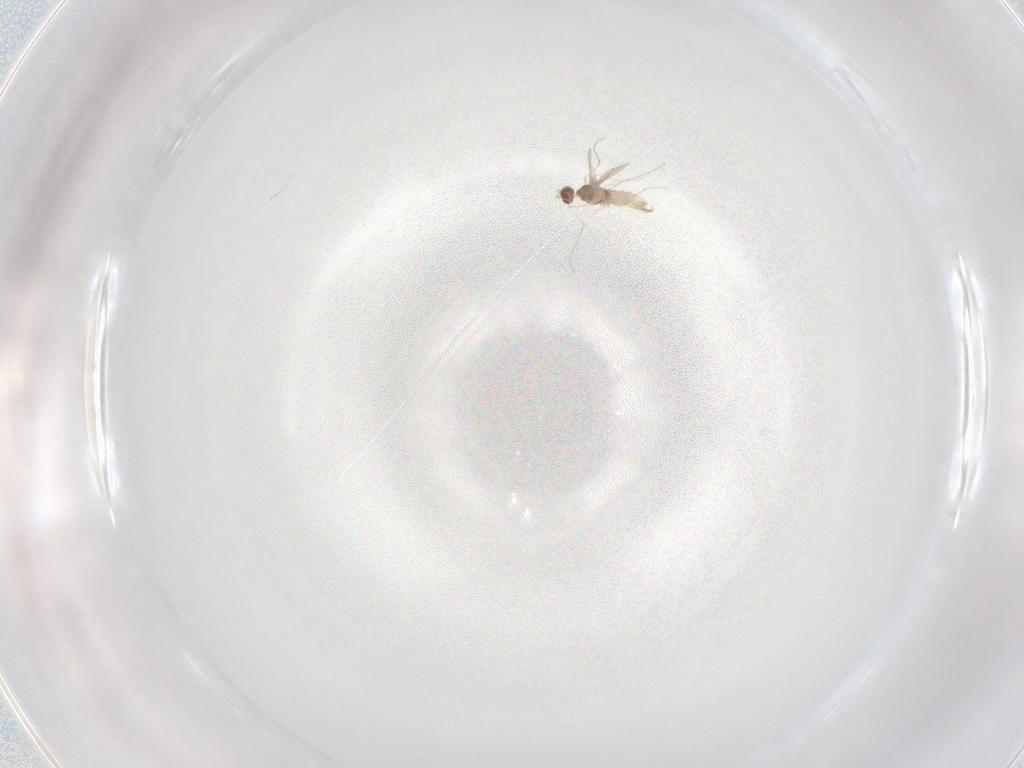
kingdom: Animalia
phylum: Arthropoda
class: Insecta
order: Diptera
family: Cecidomyiidae
